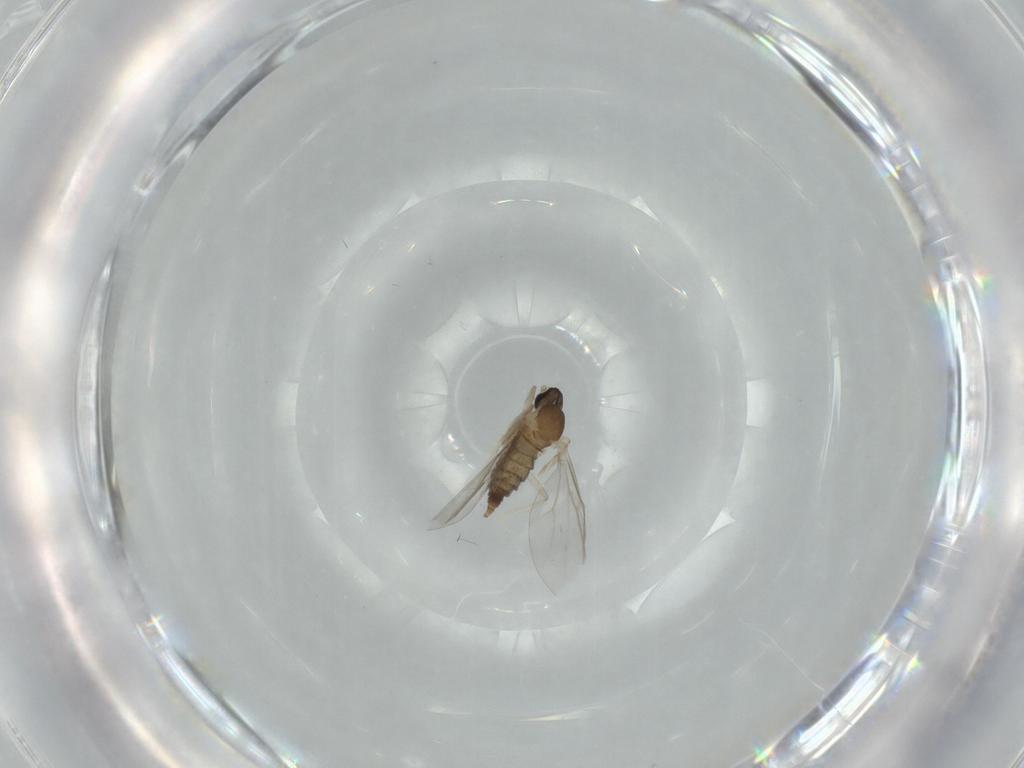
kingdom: Animalia
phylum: Arthropoda
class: Insecta
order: Diptera
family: Cecidomyiidae
